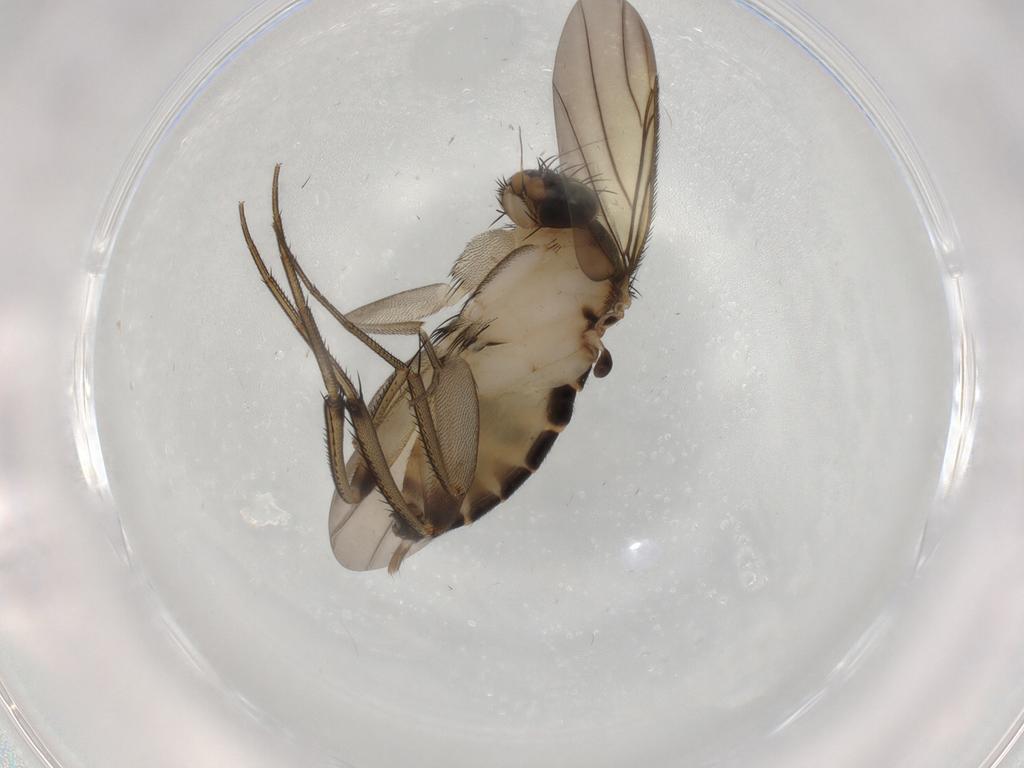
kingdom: Animalia
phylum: Arthropoda
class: Insecta
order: Diptera
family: Phoridae
